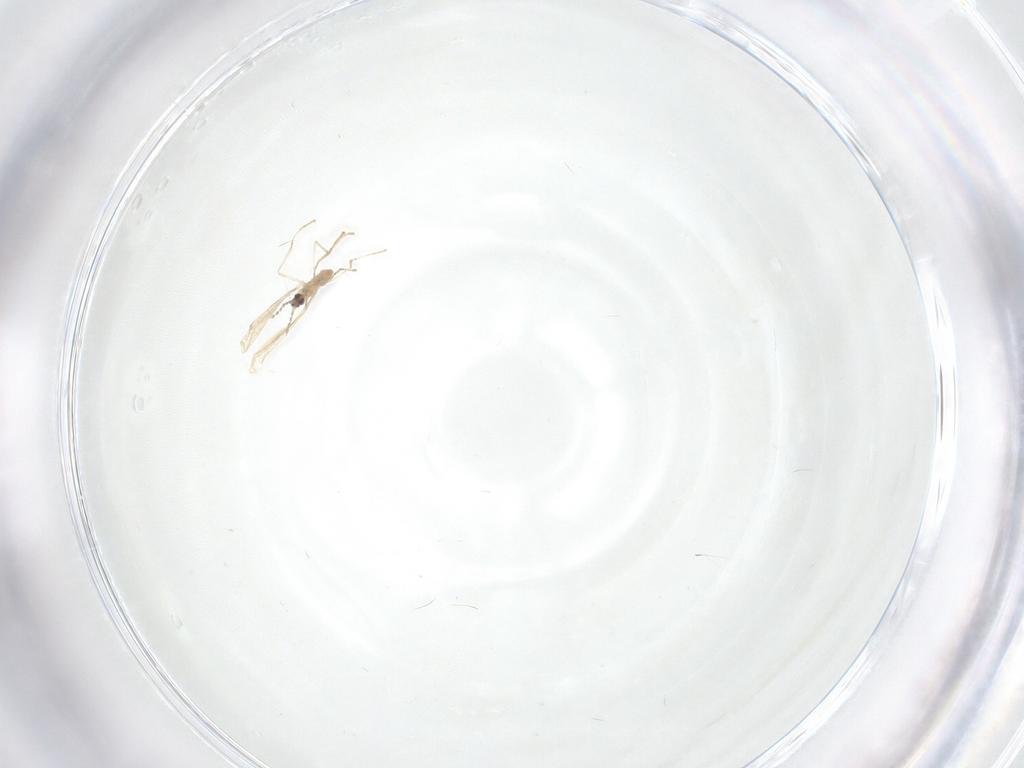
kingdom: Animalia
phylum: Arthropoda
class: Insecta
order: Diptera
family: Cecidomyiidae
